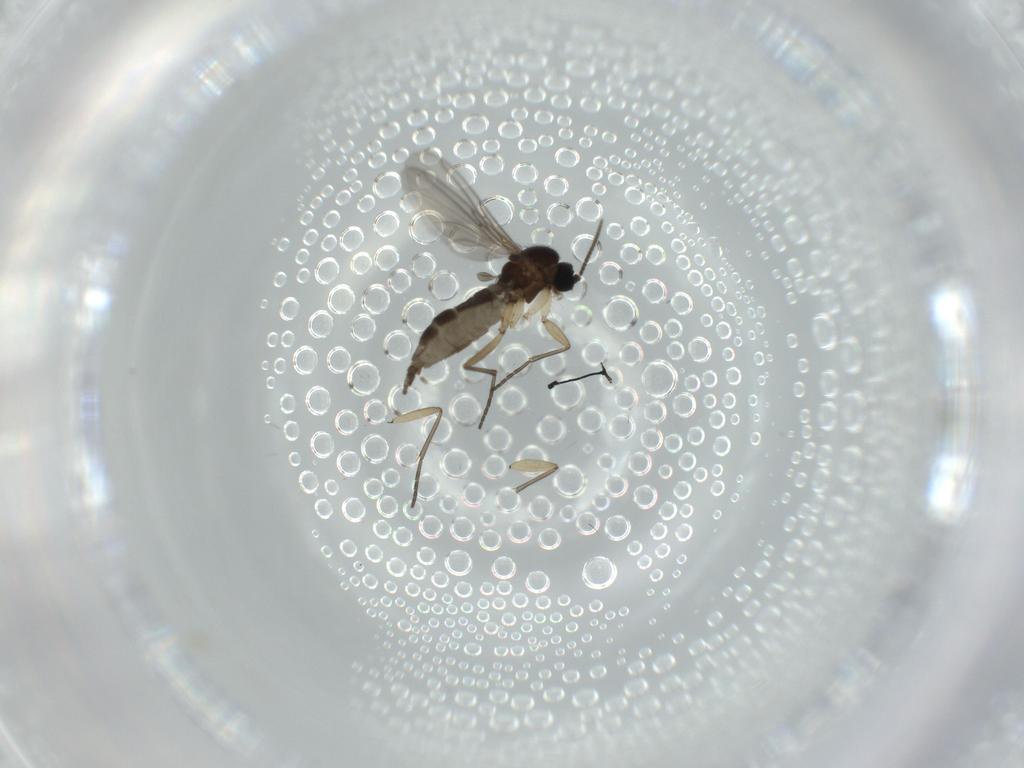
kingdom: Animalia
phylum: Arthropoda
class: Insecta
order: Diptera
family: Sciaridae
